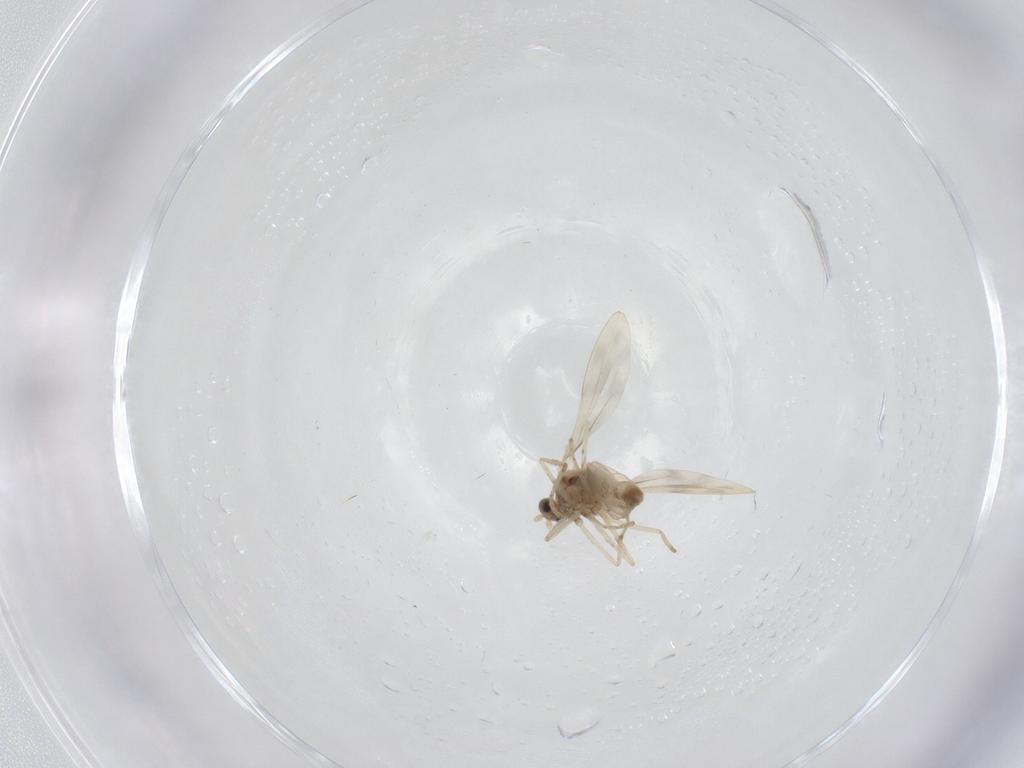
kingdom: Animalia
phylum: Arthropoda
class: Insecta
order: Diptera
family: Cecidomyiidae
